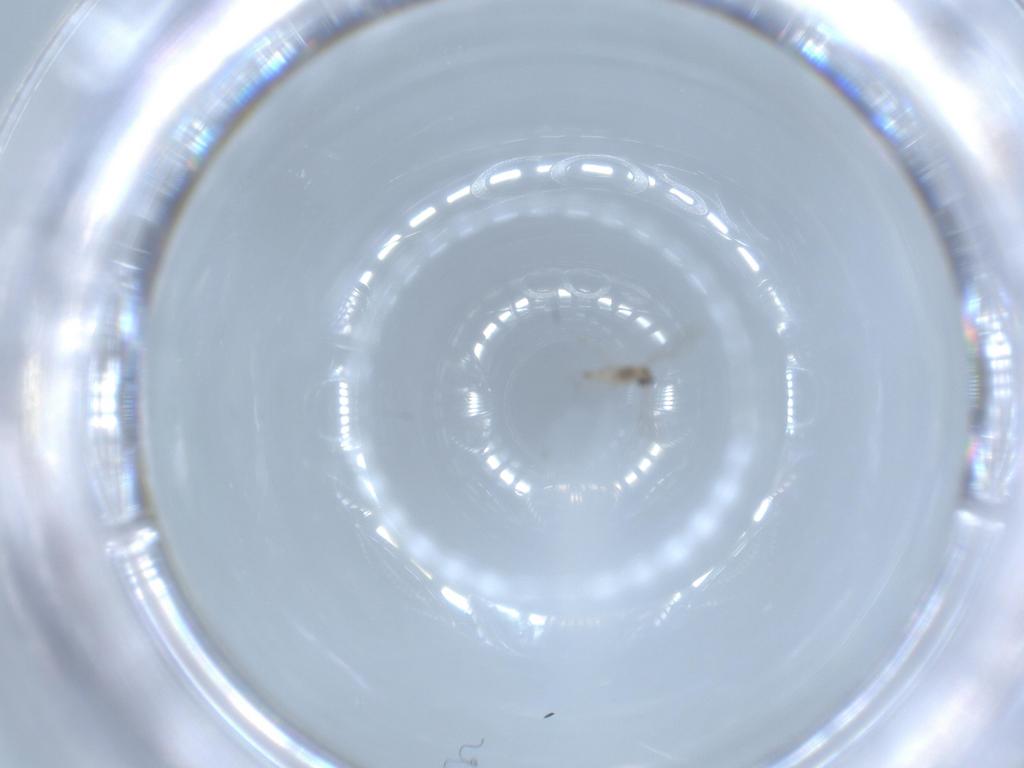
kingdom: Animalia
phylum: Arthropoda
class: Insecta
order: Diptera
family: Cecidomyiidae
